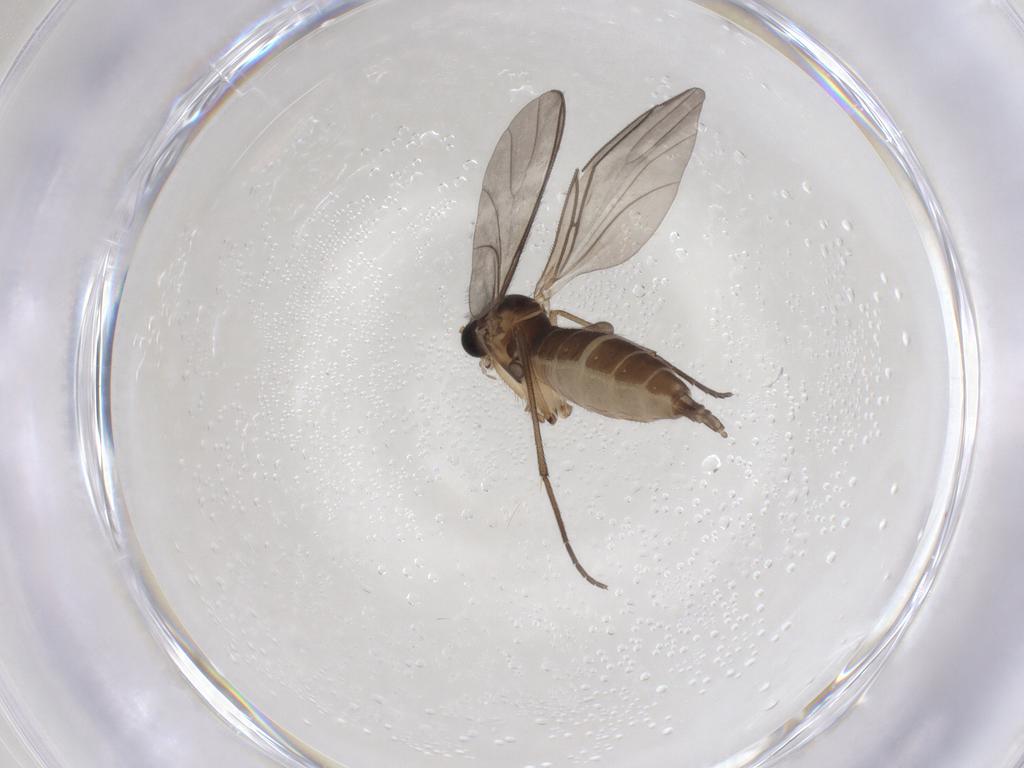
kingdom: Animalia
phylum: Arthropoda
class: Insecta
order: Diptera
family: Sciaridae
